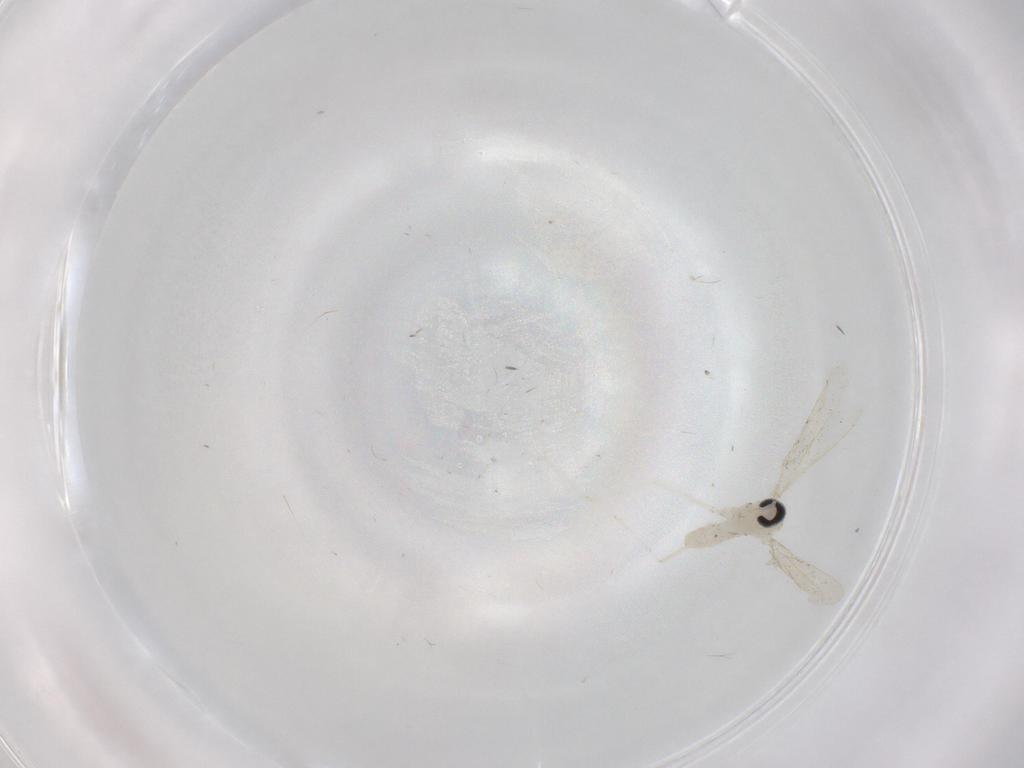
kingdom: Animalia
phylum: Arthropoda
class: Insecta
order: Diptera
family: Cecidomyiidae
